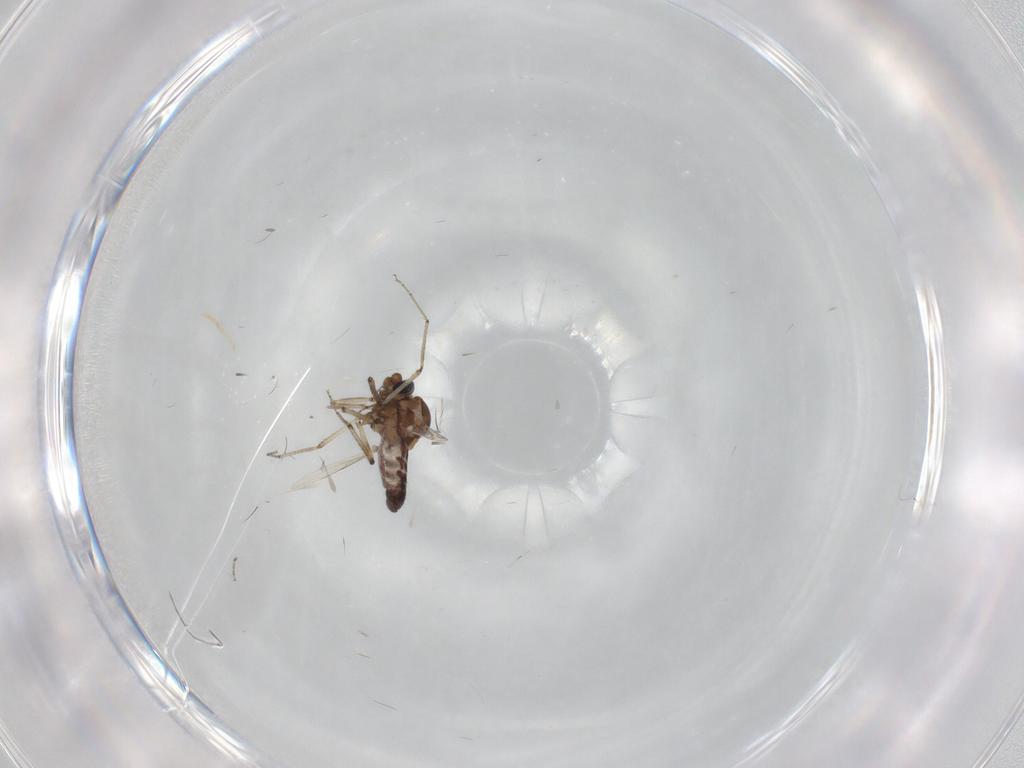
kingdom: Animalia
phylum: Arthropoda
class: Insecta
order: Diptera
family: Ceratopogonidae
